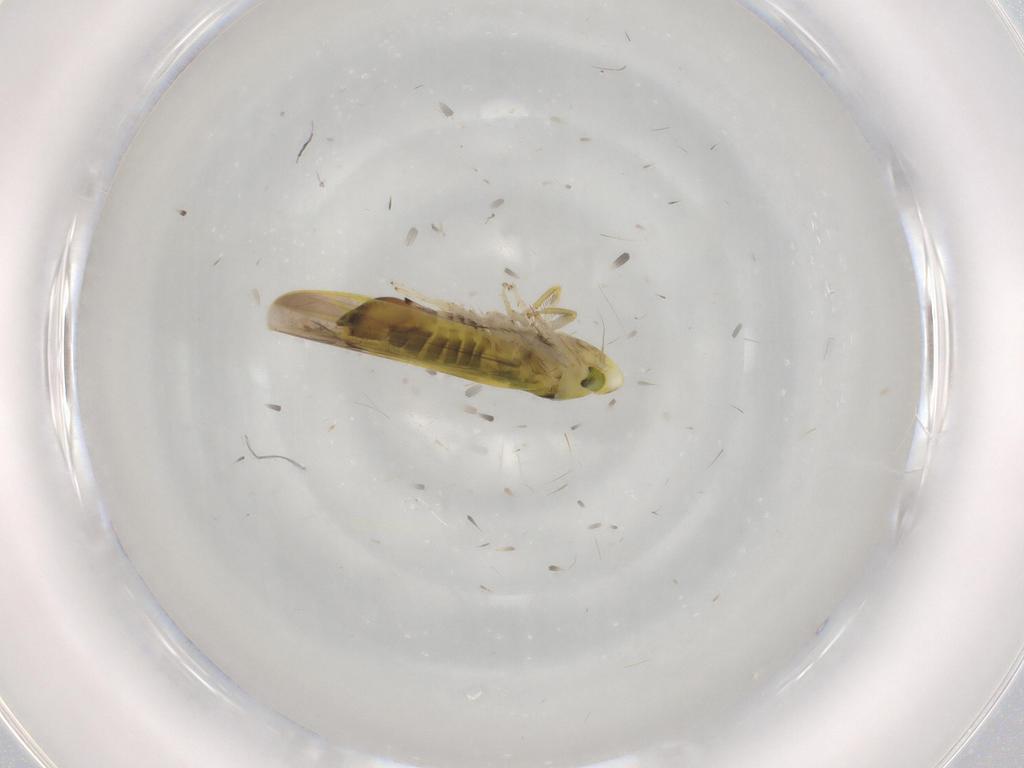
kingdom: Animalia
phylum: Arthropoda
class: Insecta
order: Hemiptera
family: Cicadellidae
